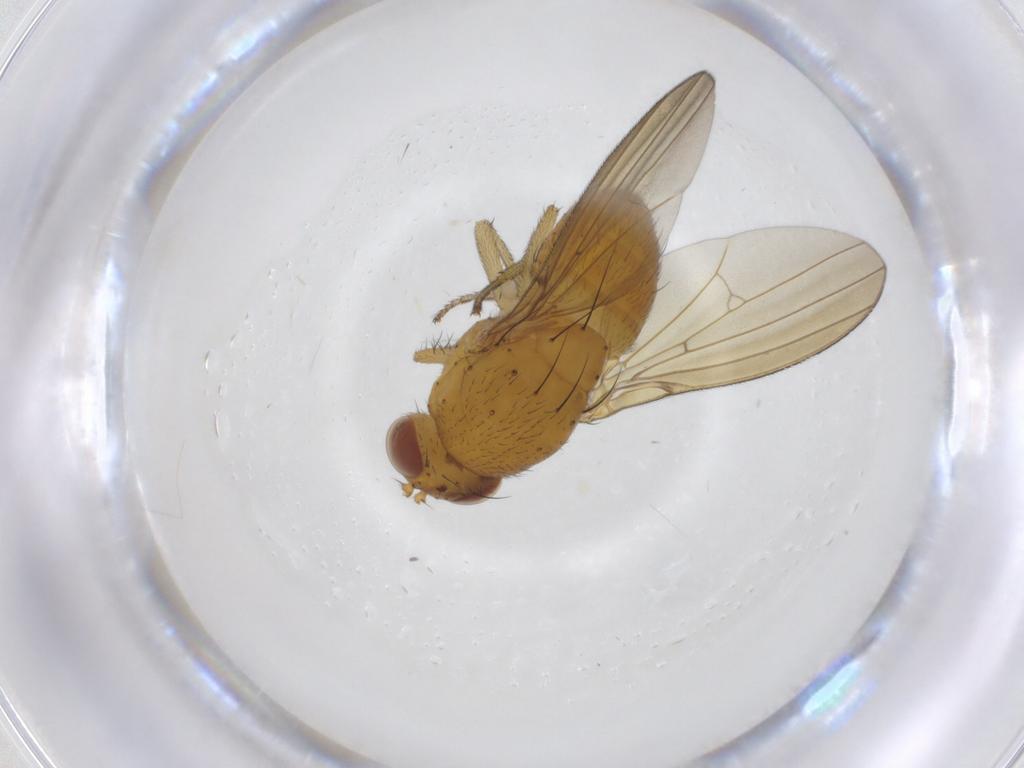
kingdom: Animalia
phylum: Arthropoda
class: Insecta
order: Diptera
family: Lauxaniidae
